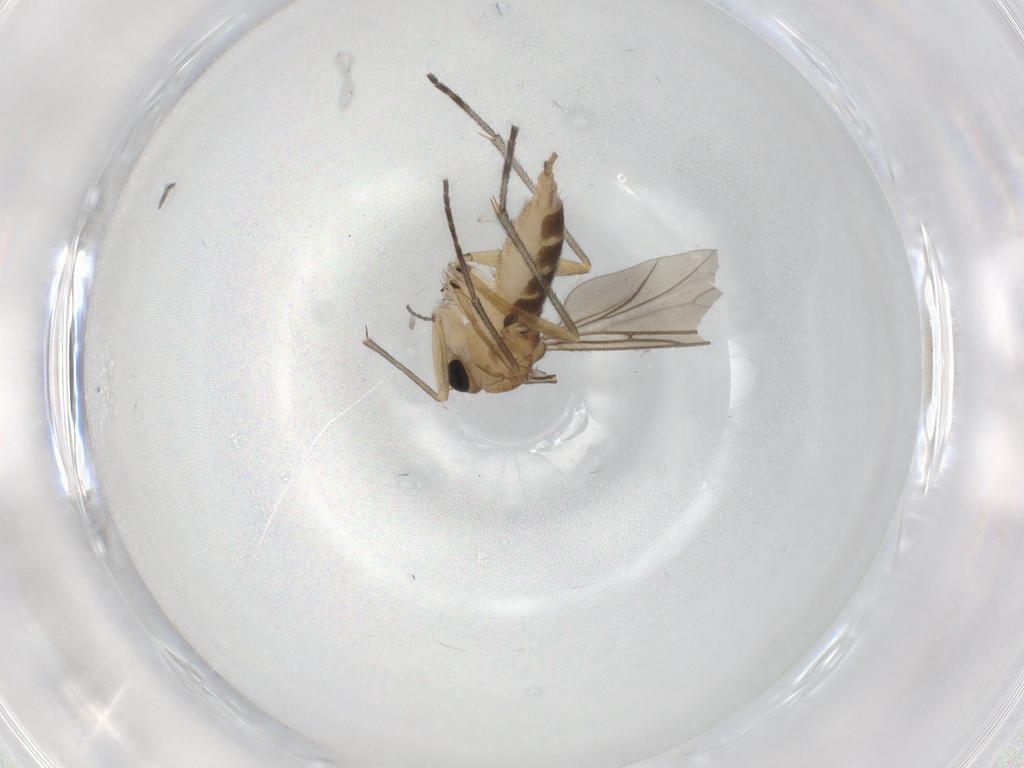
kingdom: Animalia
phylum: Arthropoda
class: Insecta
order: Diptera
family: Sciaridae
